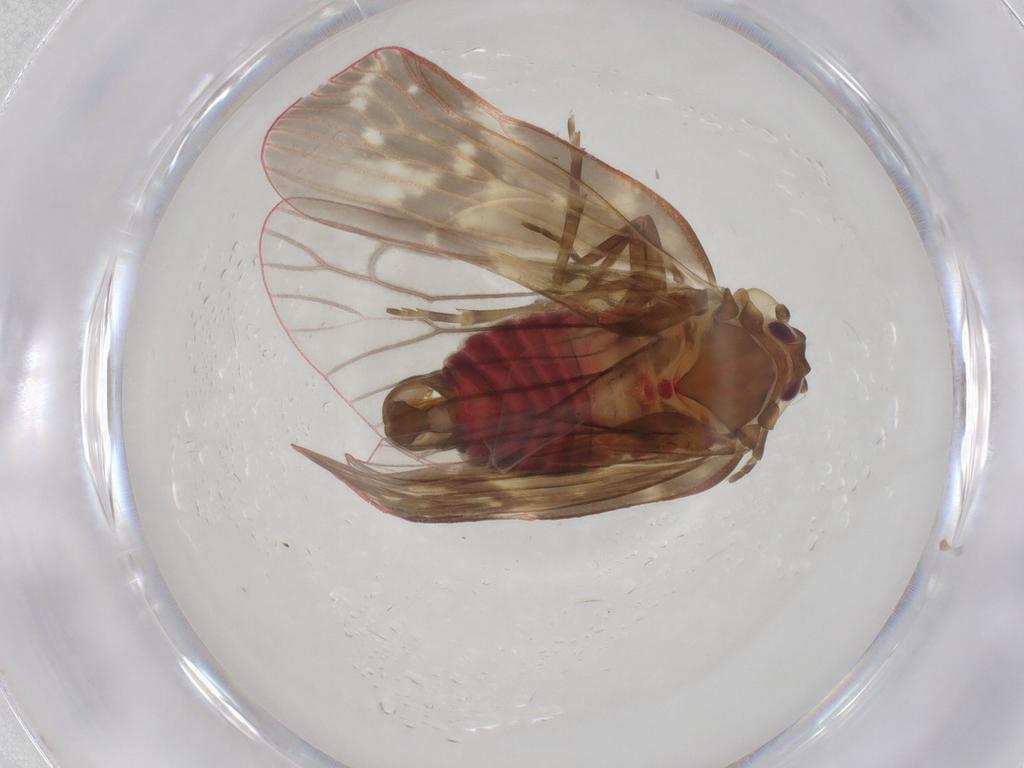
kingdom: Animalia
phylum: Arthropoda
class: Insecta
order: Hemiptera
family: Achilidae
